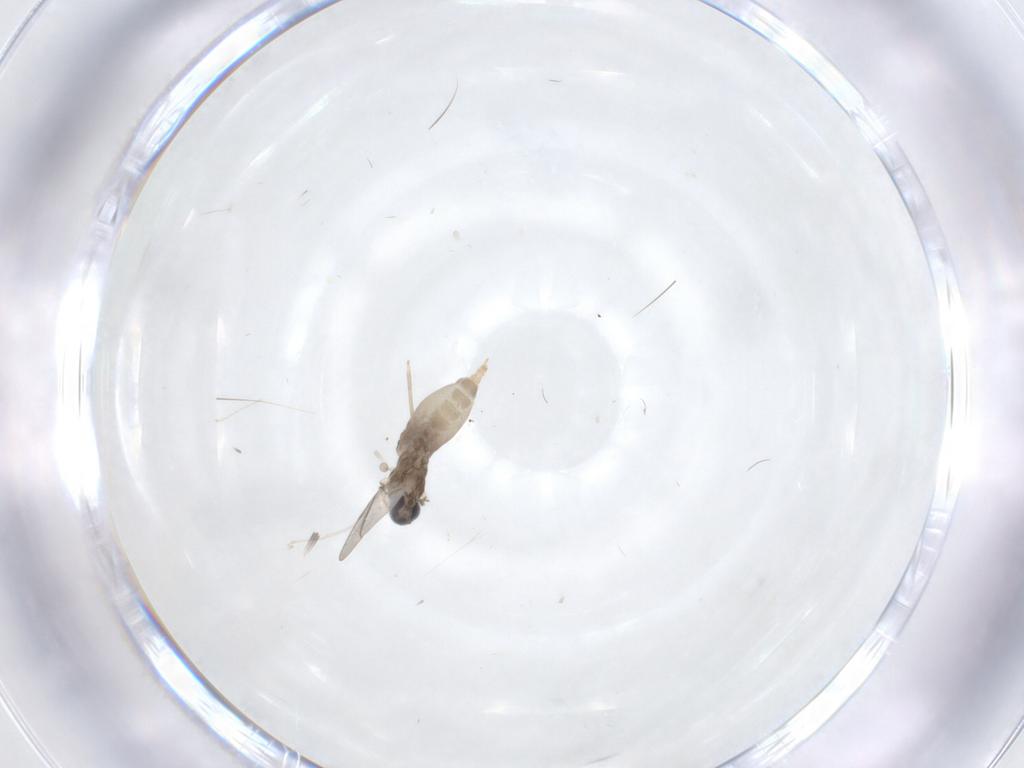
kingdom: Animalia
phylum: Arthropoda
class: Insecta
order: Diptera
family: Cecidomyiidae
